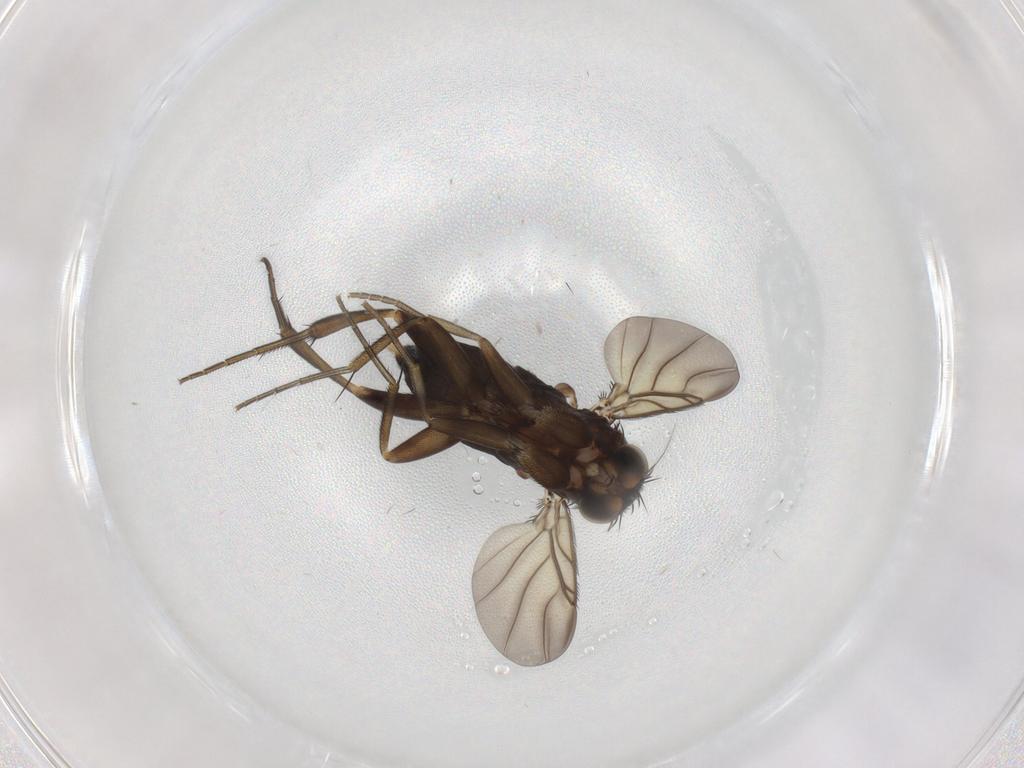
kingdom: Animalia
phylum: Arthropoda
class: Insecta
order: Diptera
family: Phoridae
